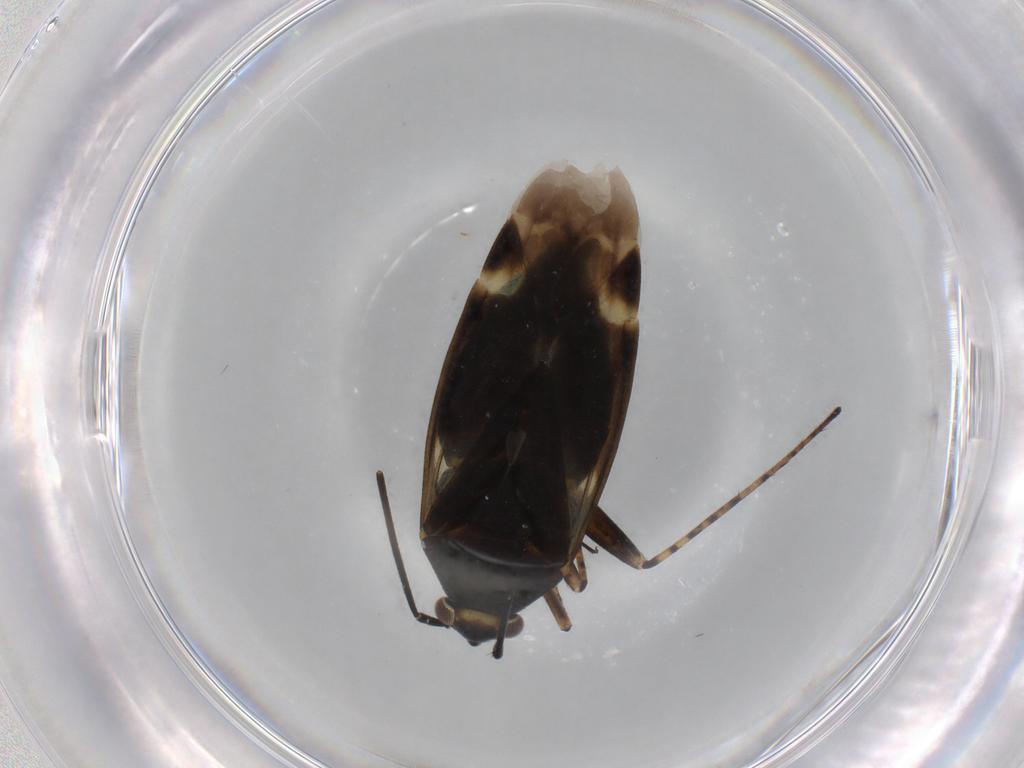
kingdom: Animalia
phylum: Arthropoda
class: Insecta
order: Hemiptera
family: Miridae
